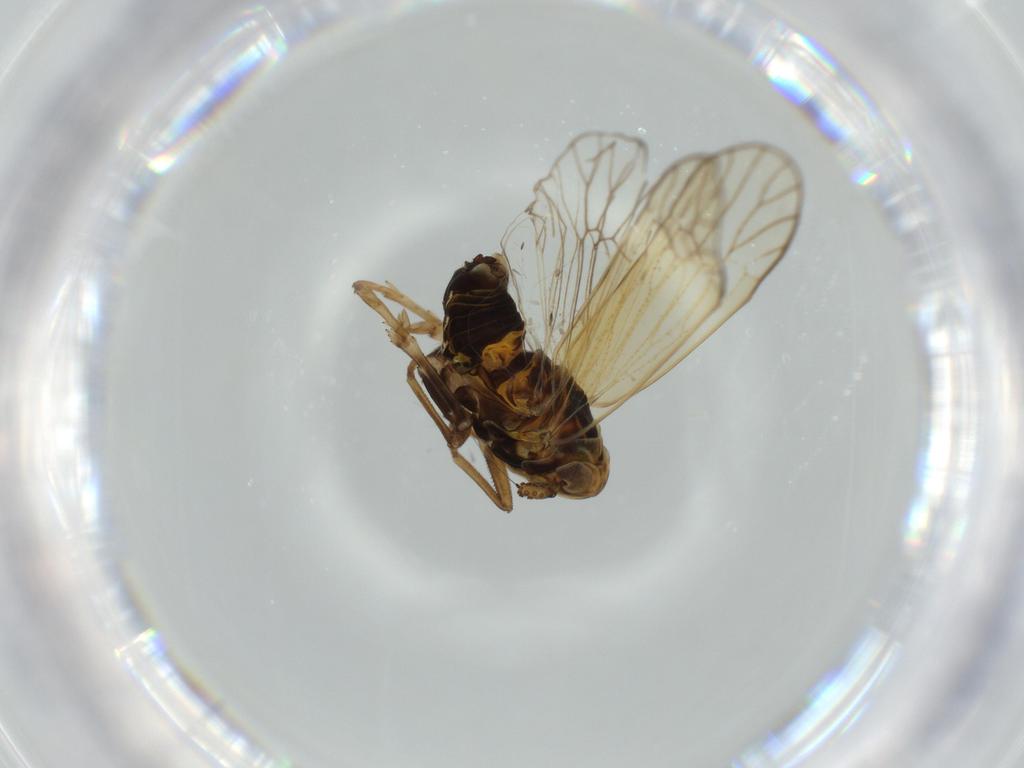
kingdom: Animalia
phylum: Arthropoda
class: Insecta
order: Hemiptera
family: Delphacidae
